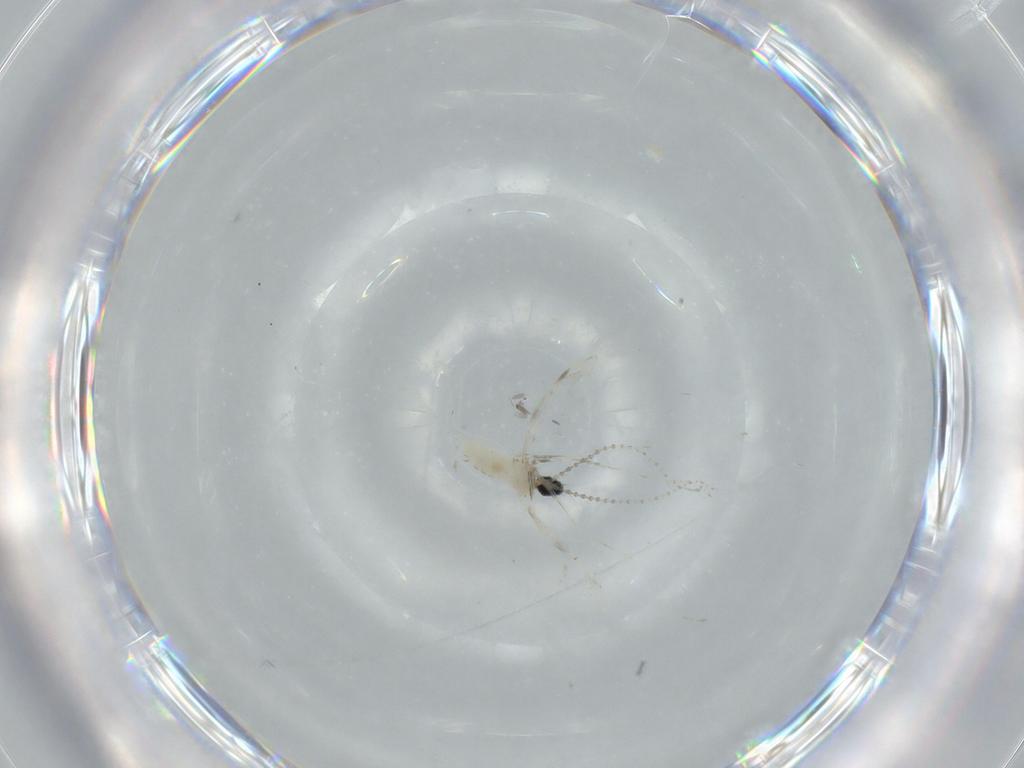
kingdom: Animalia
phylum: Arthropoda
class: Insecta
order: Diptera
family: Cecidomyiidae
